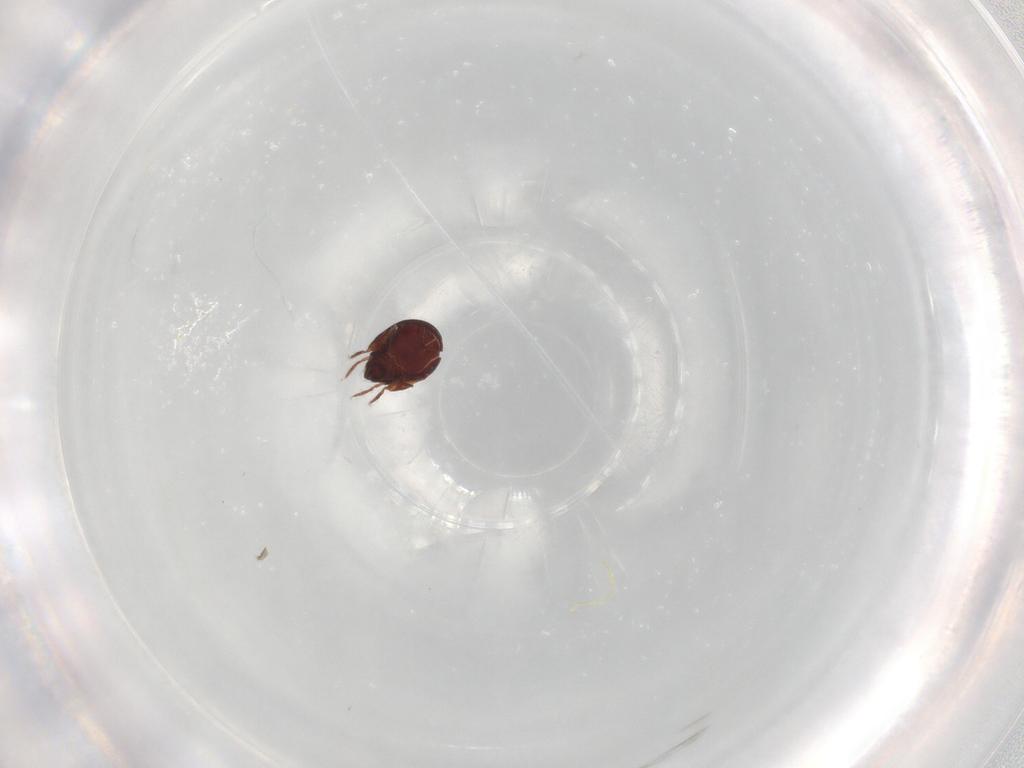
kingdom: Animalia
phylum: Arthropoda
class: Arachnida
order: Sarcoptiformes
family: Humerobatidae
